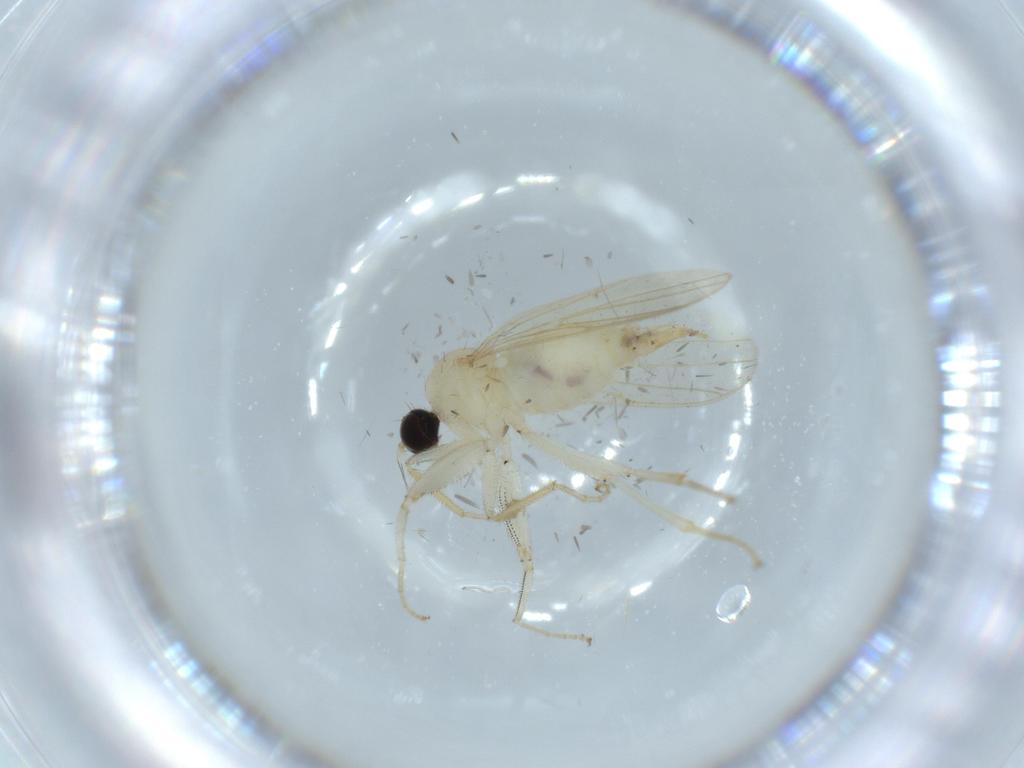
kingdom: Animalia
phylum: Arthropoda
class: Insecta
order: Diptera
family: Hybotidae
